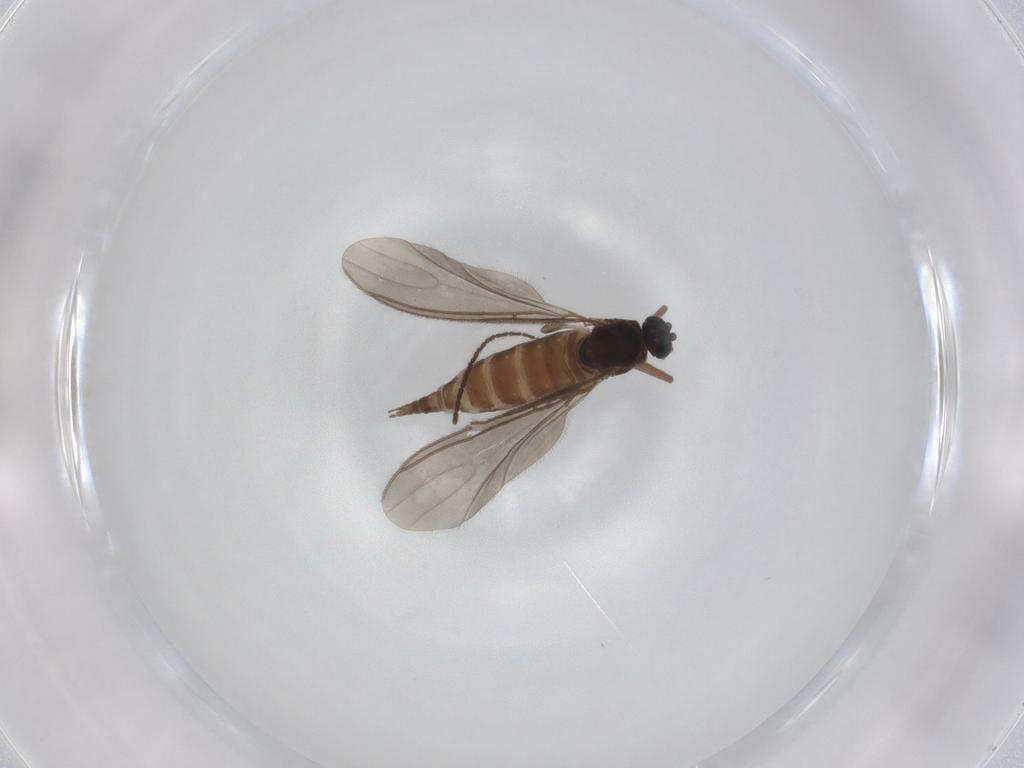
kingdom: Animalia
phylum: Arthropoda
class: Insecta
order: Diptera
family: Sciaridae
